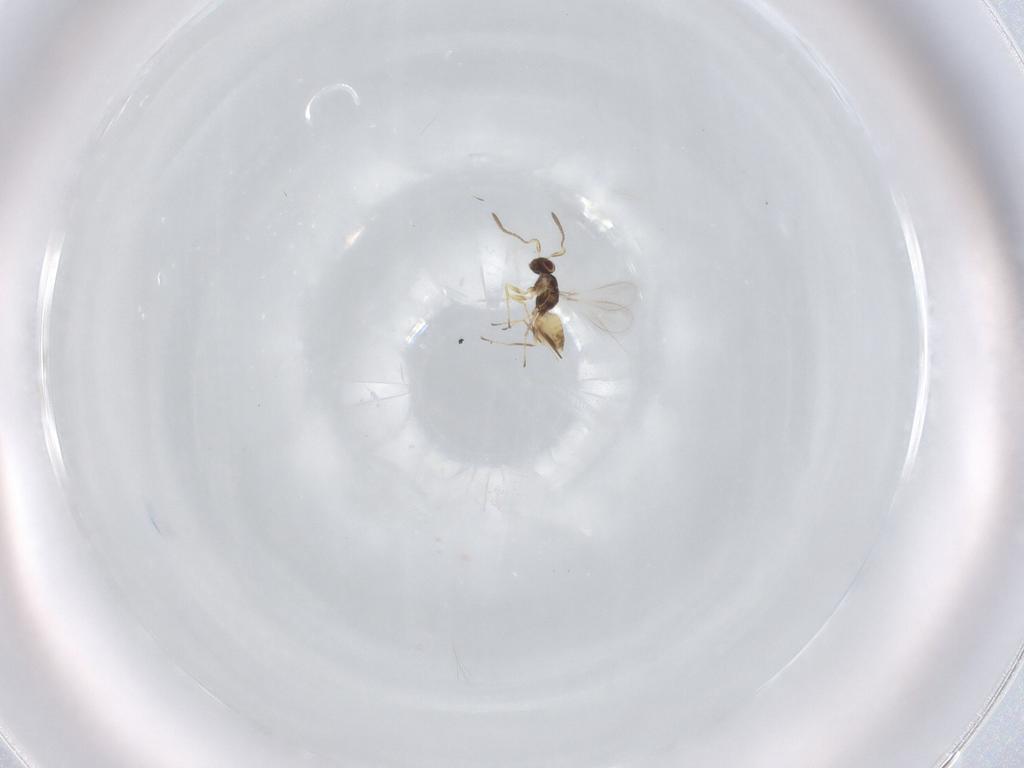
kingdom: Animalia
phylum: Arthropoda
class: Insecta
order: Hymenoptera
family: Mymaridae
